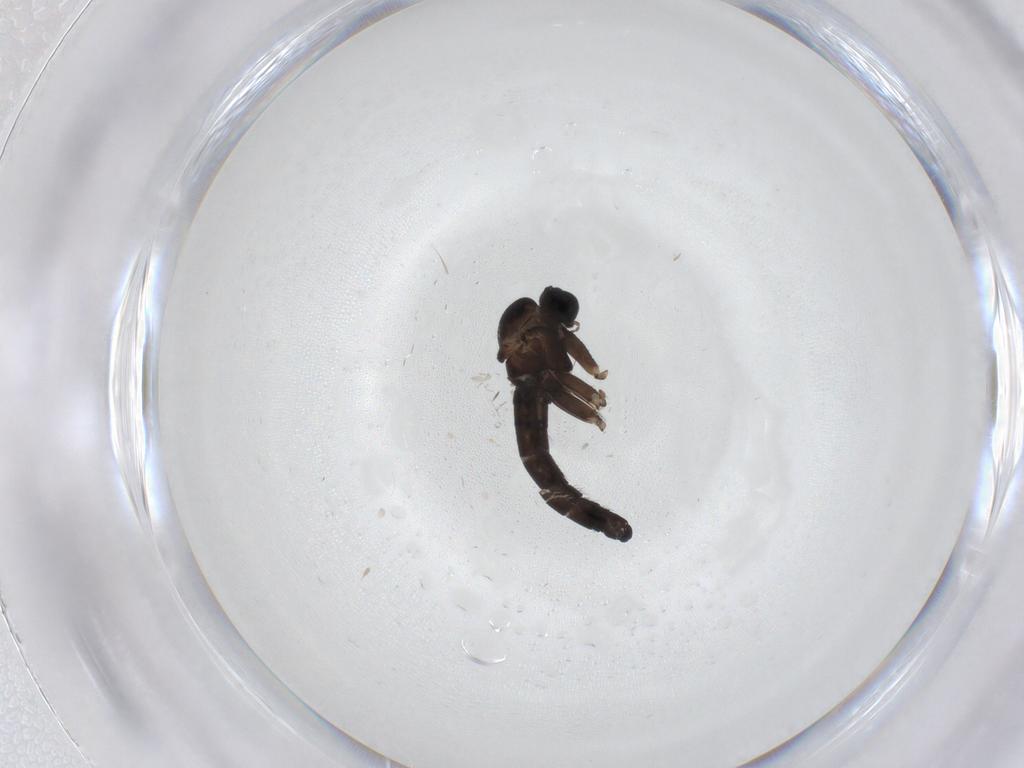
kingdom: Animalia
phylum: Arthropoda
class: Insecta
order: Diptera
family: Sciaridae
